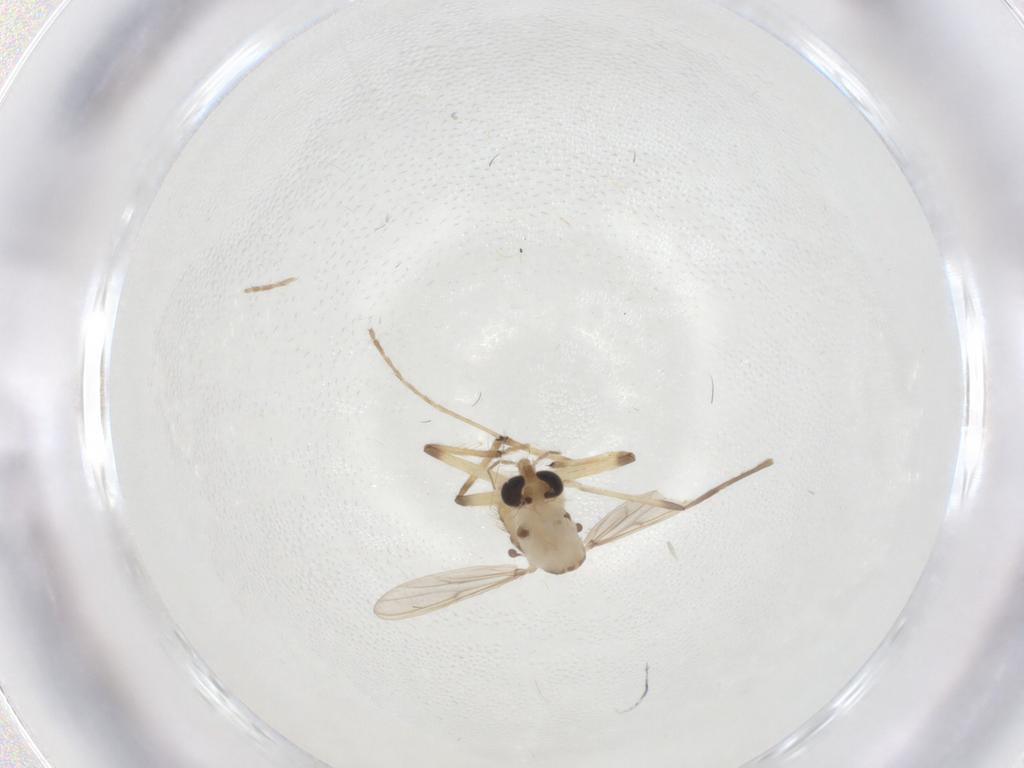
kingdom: Animalia
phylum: Arthropoda
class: Insecta
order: Diptera
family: Chironomidae
